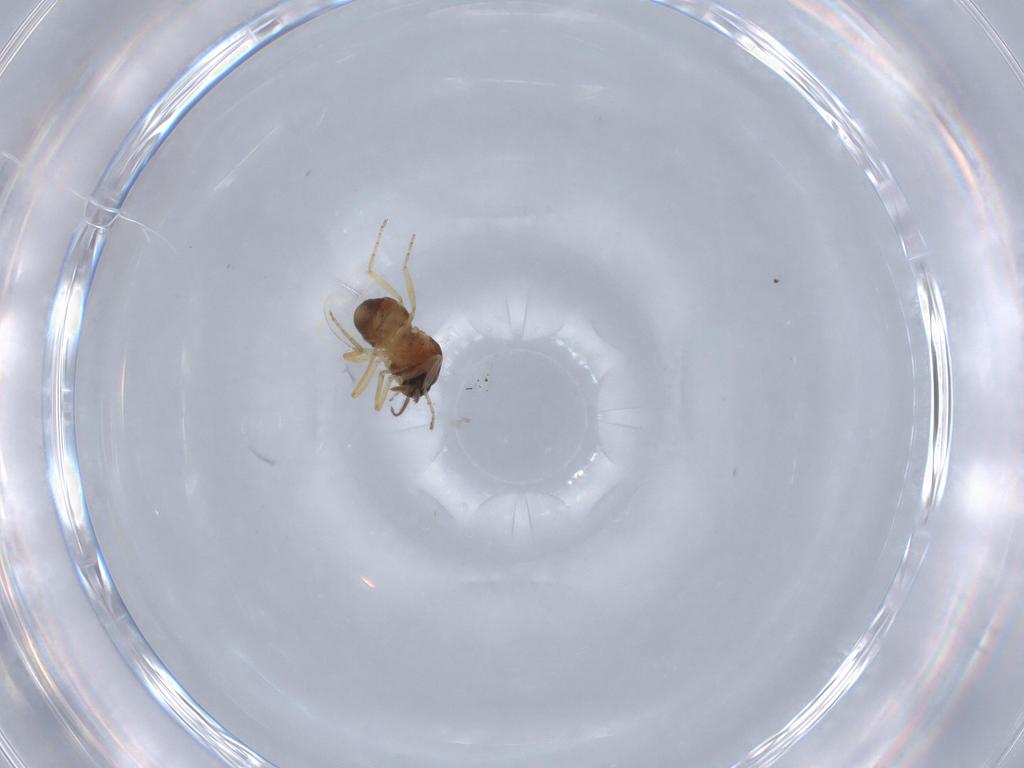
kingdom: Animalia
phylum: Arthropoda
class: Insecta
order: Diptera
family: Ceratopogonidae
